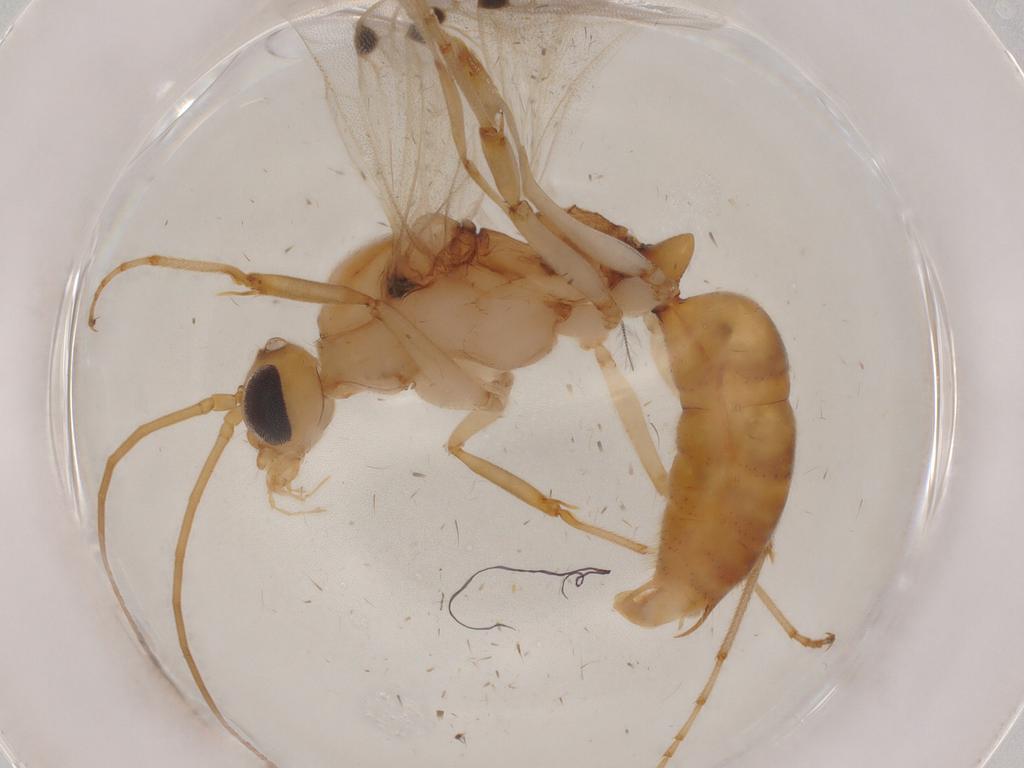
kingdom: Animalia
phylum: Arthropoda
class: Insecta
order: Hymenoptera
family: Formicidae
